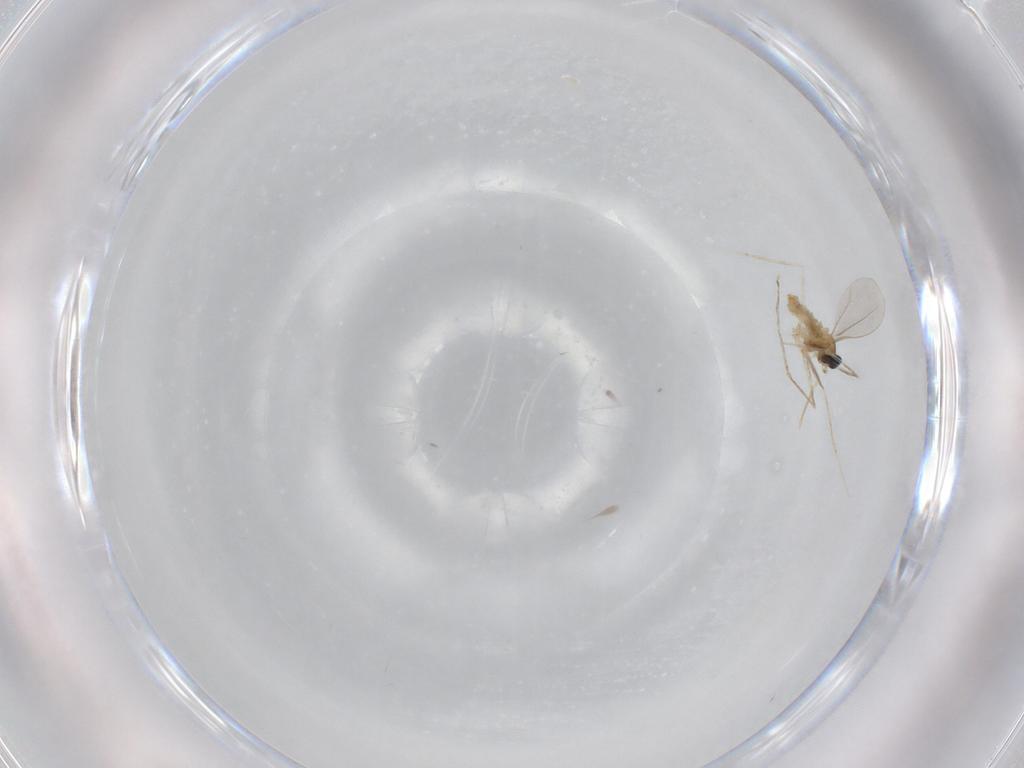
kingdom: Animalia
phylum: Arthropoda
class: Insecta
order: Diptera
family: Cecidomyiidae
